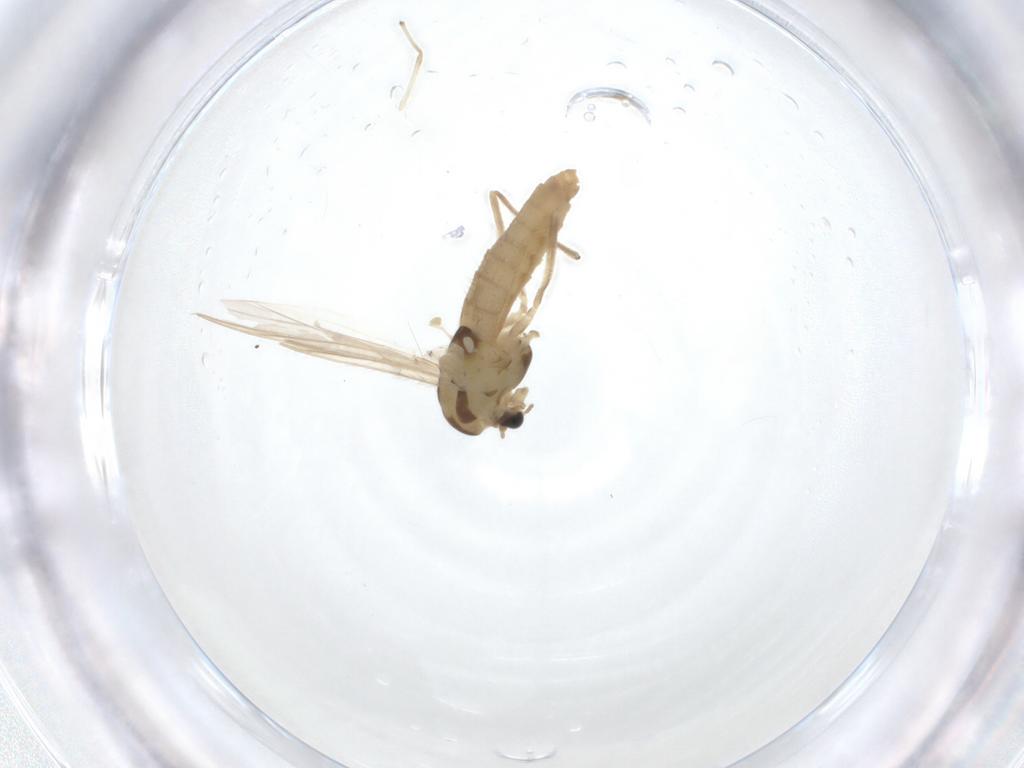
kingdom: Animalia
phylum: Arthropoda
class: Insecta
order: Diptera
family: Chironomidae
